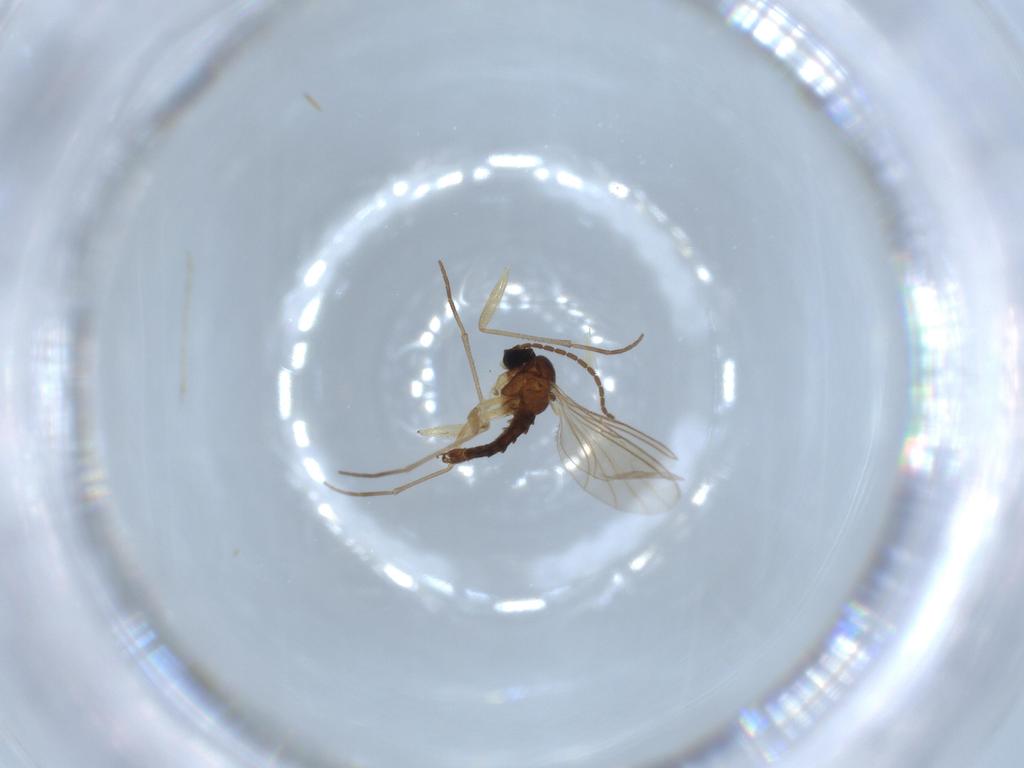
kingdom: Animalia
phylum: Arthropoda
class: Insecta
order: Diptera
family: Sciaridae
